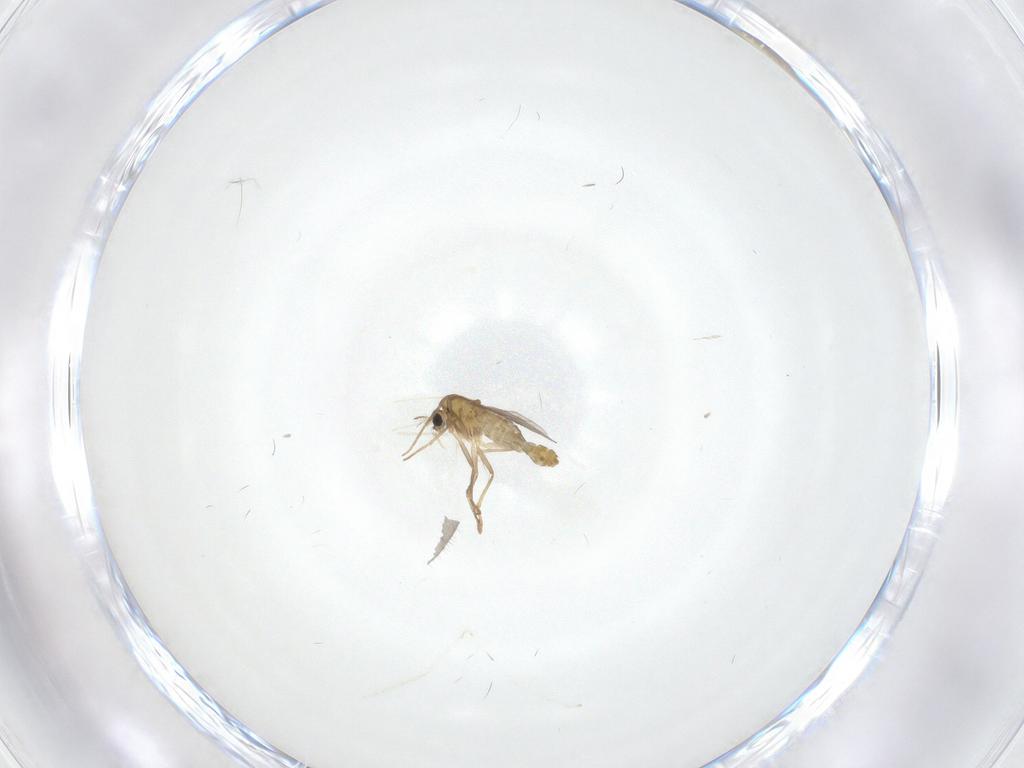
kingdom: Animalia
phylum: Arthropoda
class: Insecta
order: Diptera
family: Chironomidae
